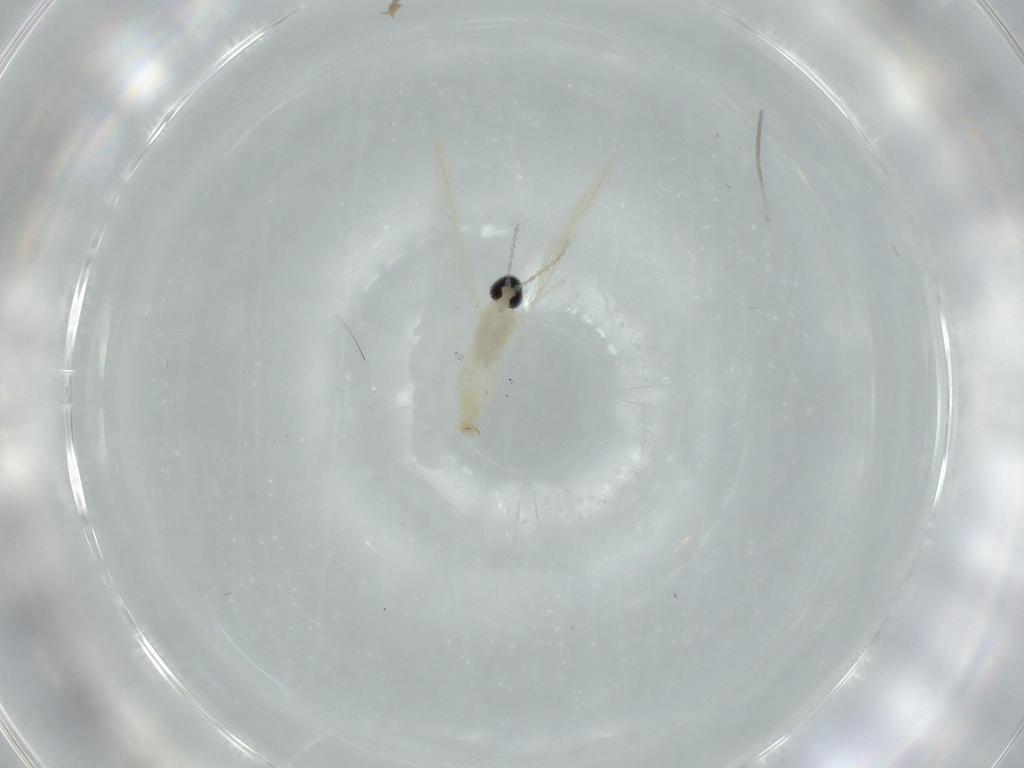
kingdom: Animalia
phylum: Arthropoda
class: Insecta
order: Diptera
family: Cecidomyiidae
